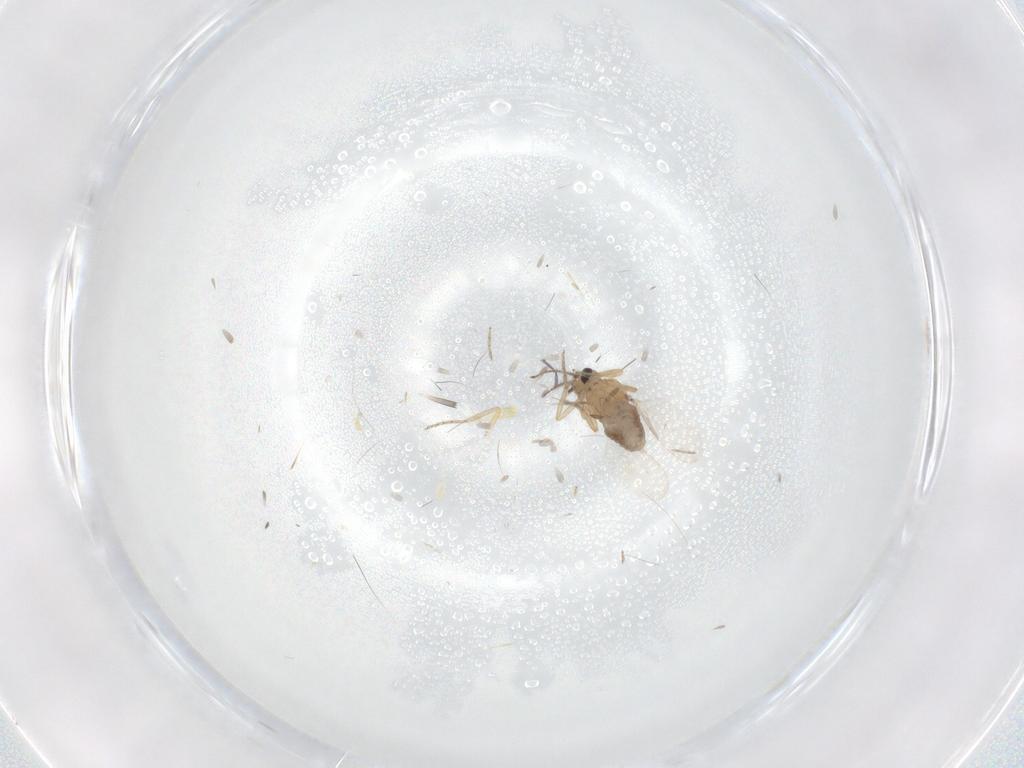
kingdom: Animalia
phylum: Arthropoda
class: Insecta
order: Diptera
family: Ceratopogonidae
